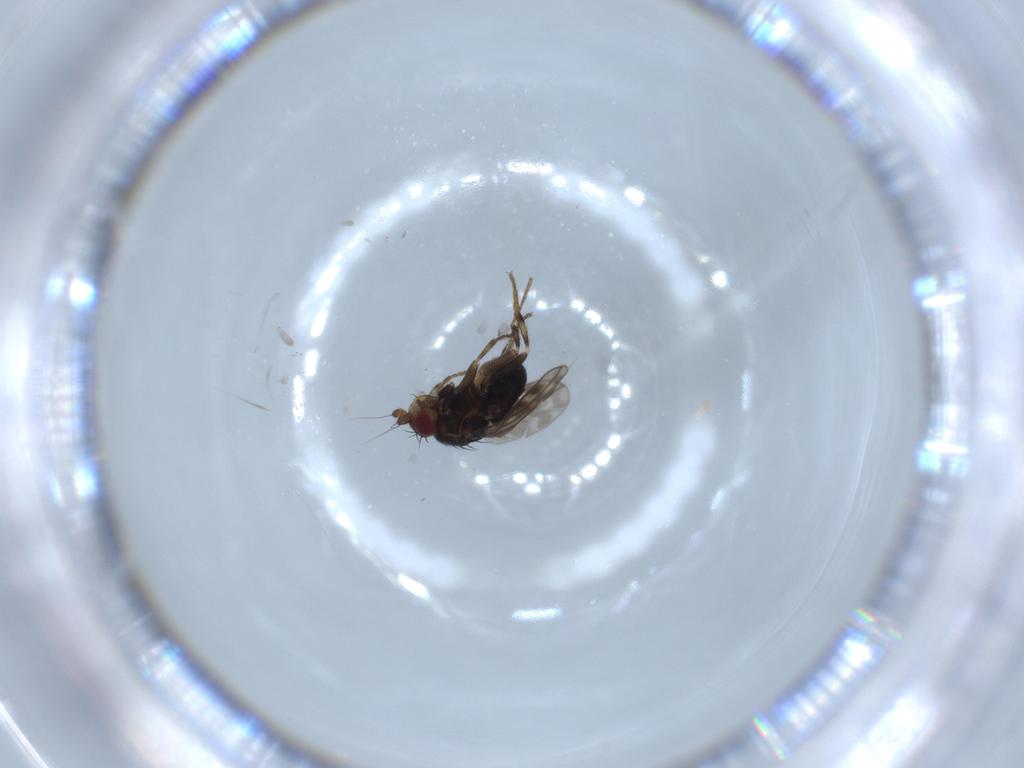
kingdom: Animalia
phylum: Arthropoda
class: Insecta
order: Diptera
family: Sphaeroceridae
